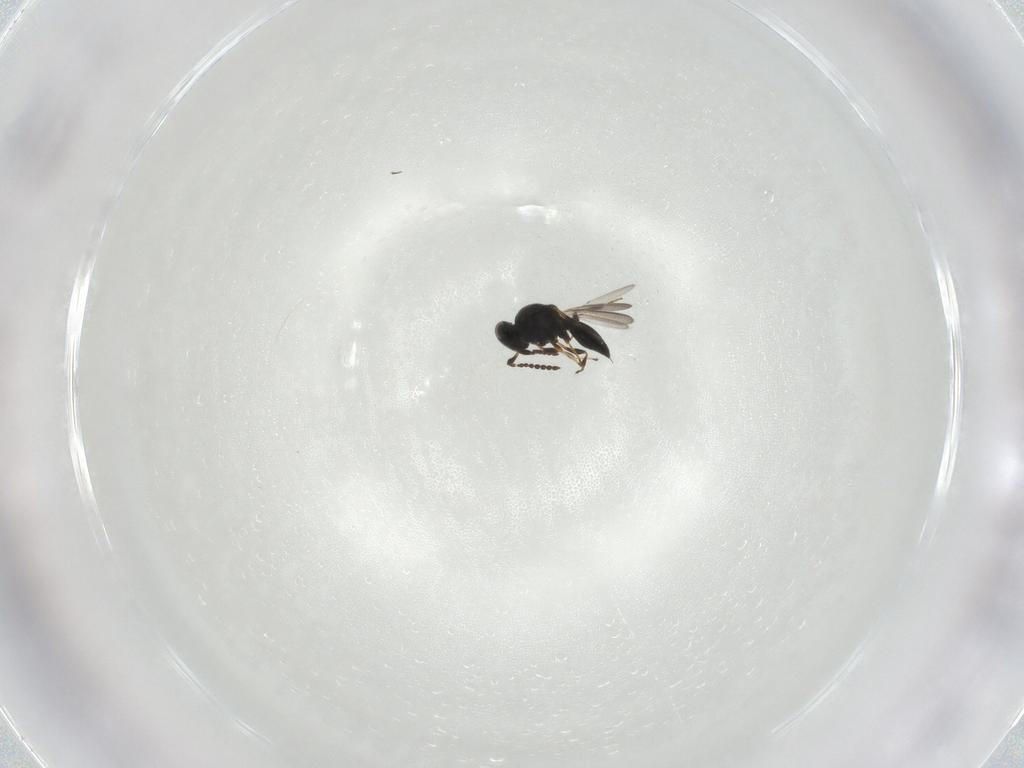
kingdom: Animalia
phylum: Arthropoda
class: Insecta
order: Hymenoptera
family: Platygastridae
